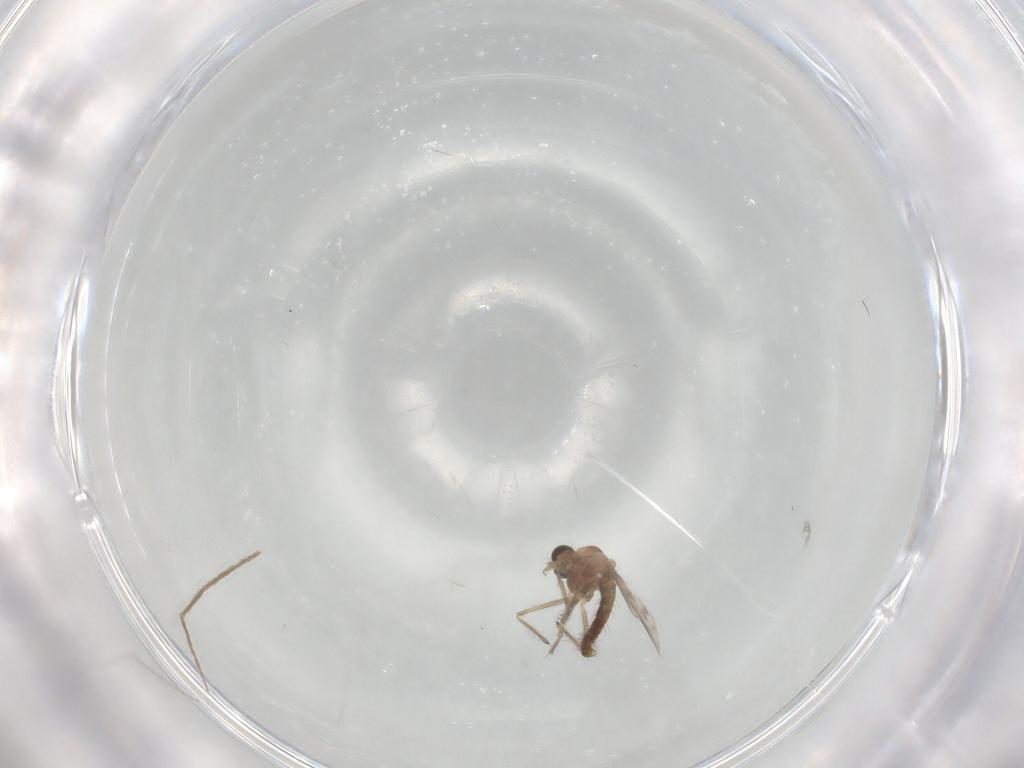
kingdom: Animalia
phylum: Arthropoda
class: Insecta
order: Diptera
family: Chironomidae
